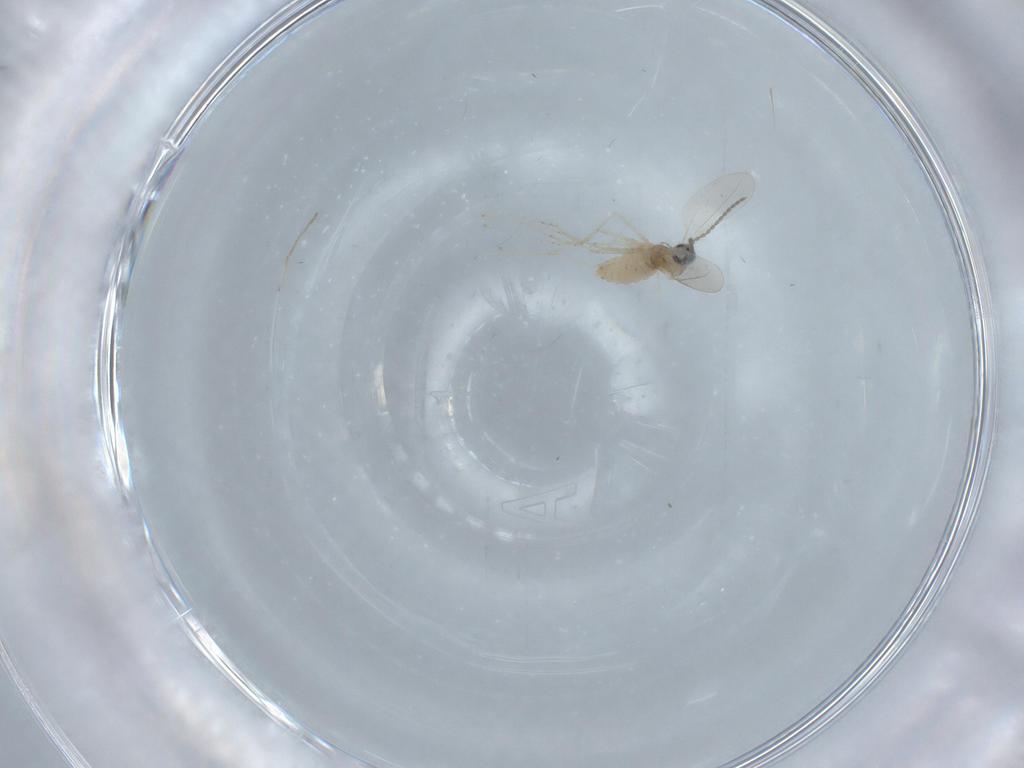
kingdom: Animalia
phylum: Arthropoda
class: Insecta
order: Diptera
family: Cecidomyiidae
